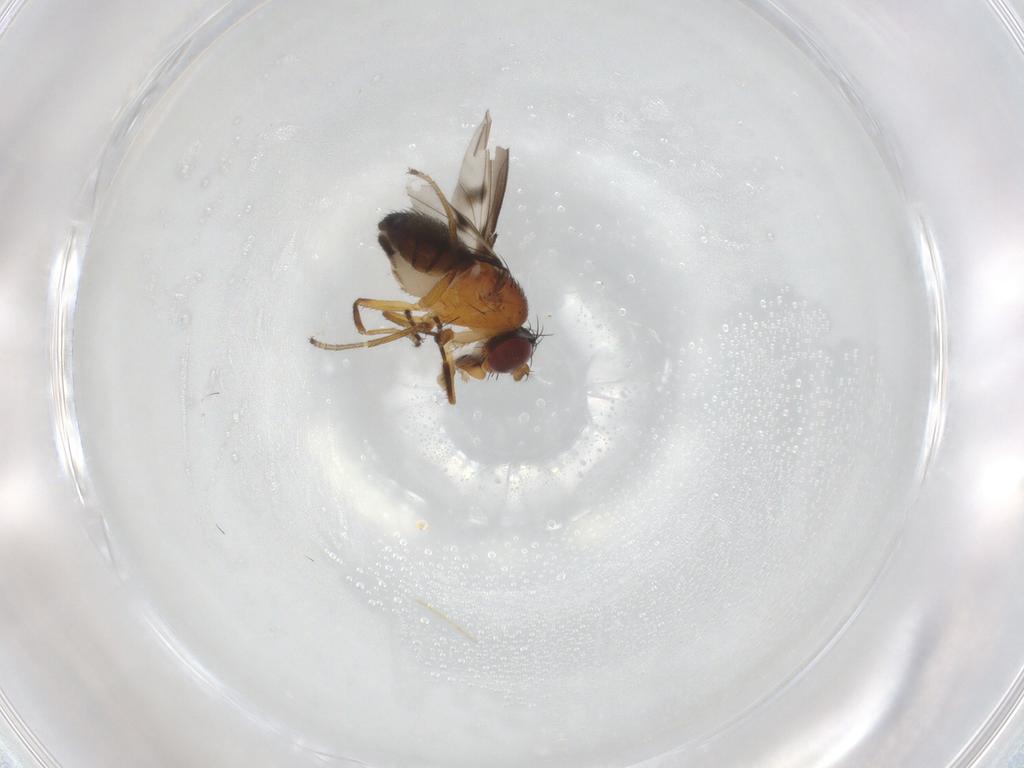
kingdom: Animalia
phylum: Arthropoda
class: Insecta
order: Diptera
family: Ephydridae
